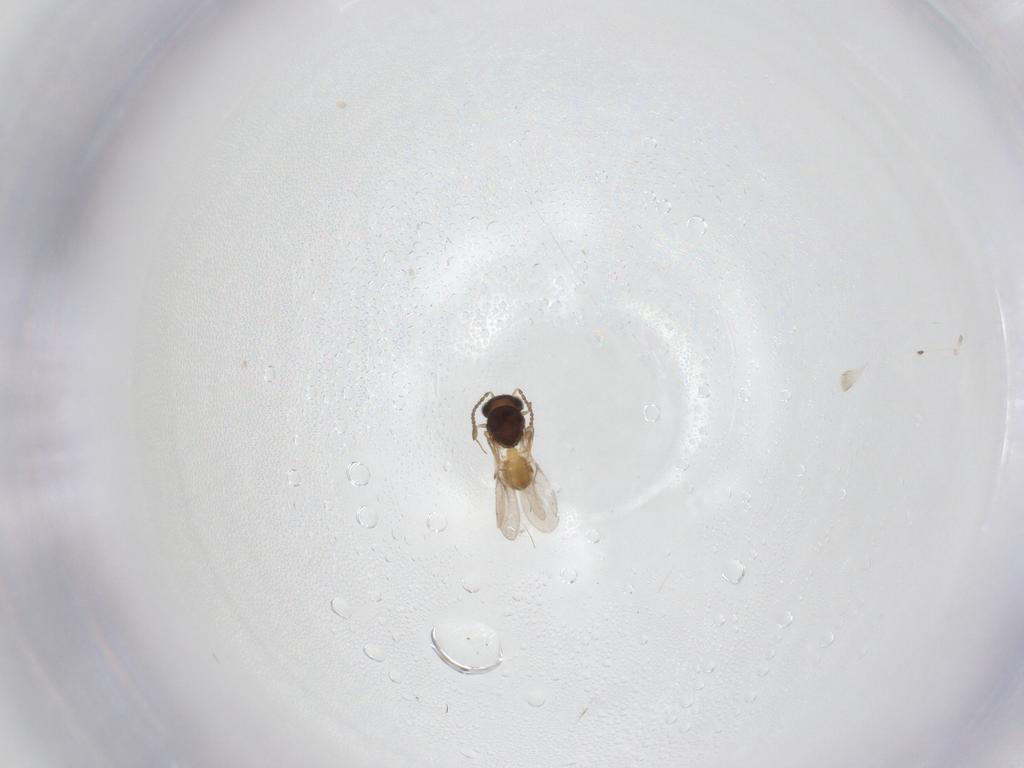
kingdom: Animalia
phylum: Arthropoda
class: Insecta
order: Hymenoptera
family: Scelionidae
